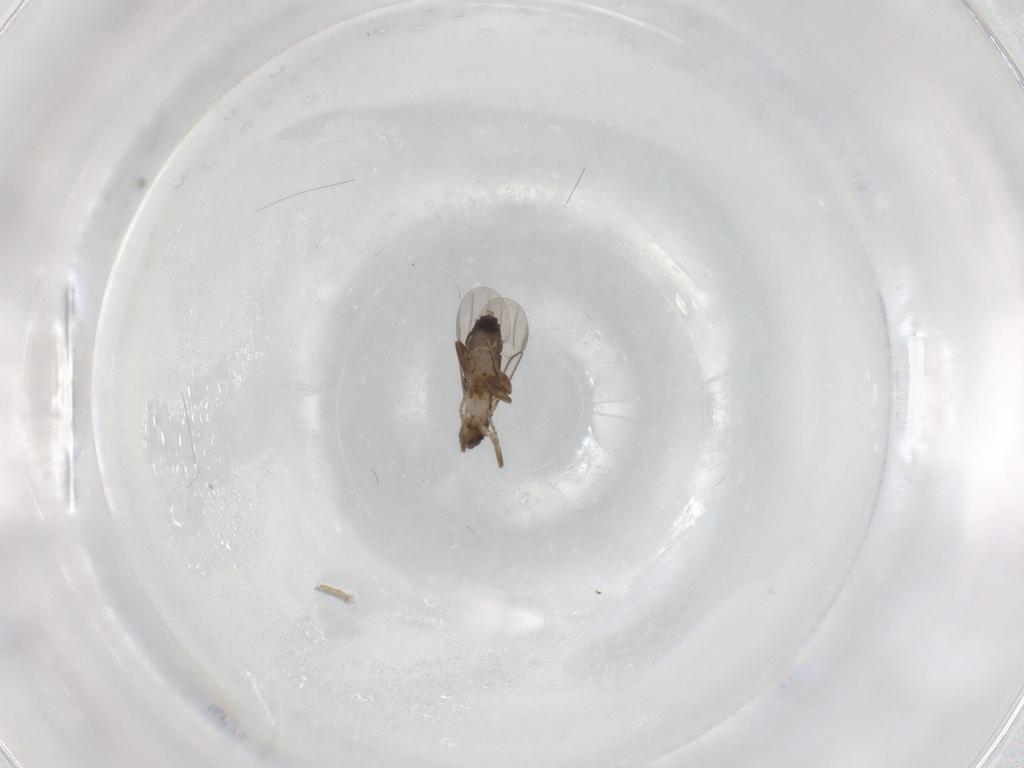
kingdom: Animalia
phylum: Arthropoda
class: Insecta
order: Diptera
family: Phoridae
